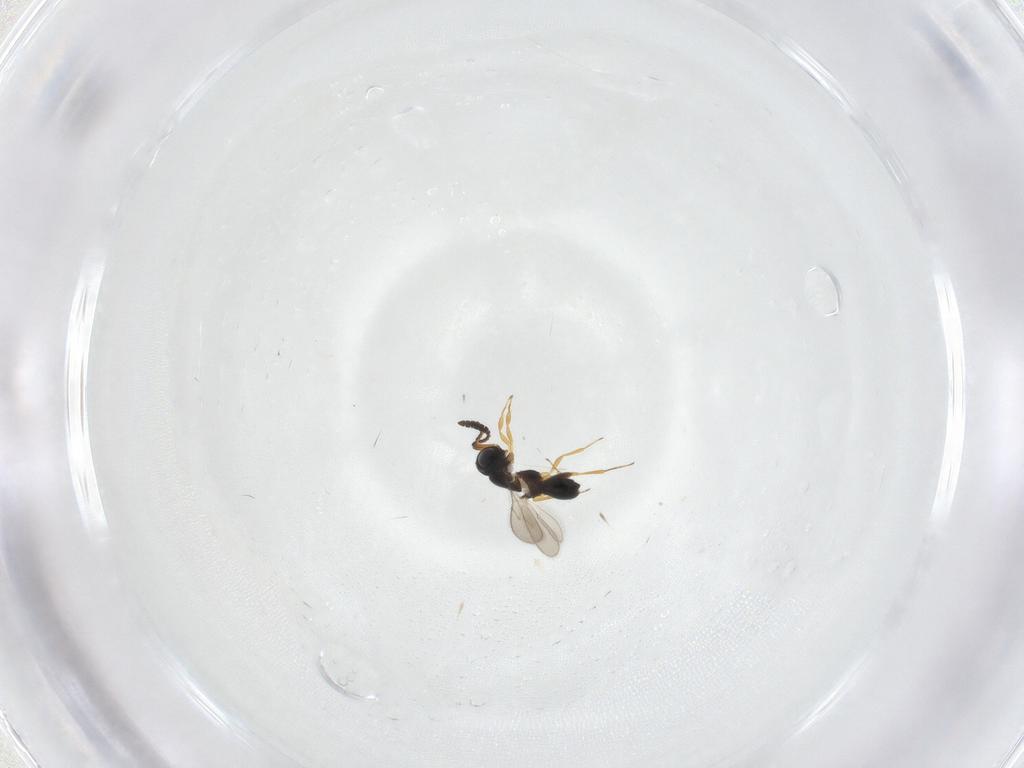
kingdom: Animalia
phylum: Arthropoda
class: Insecta
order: Hymenoptera
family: Scelionidae
